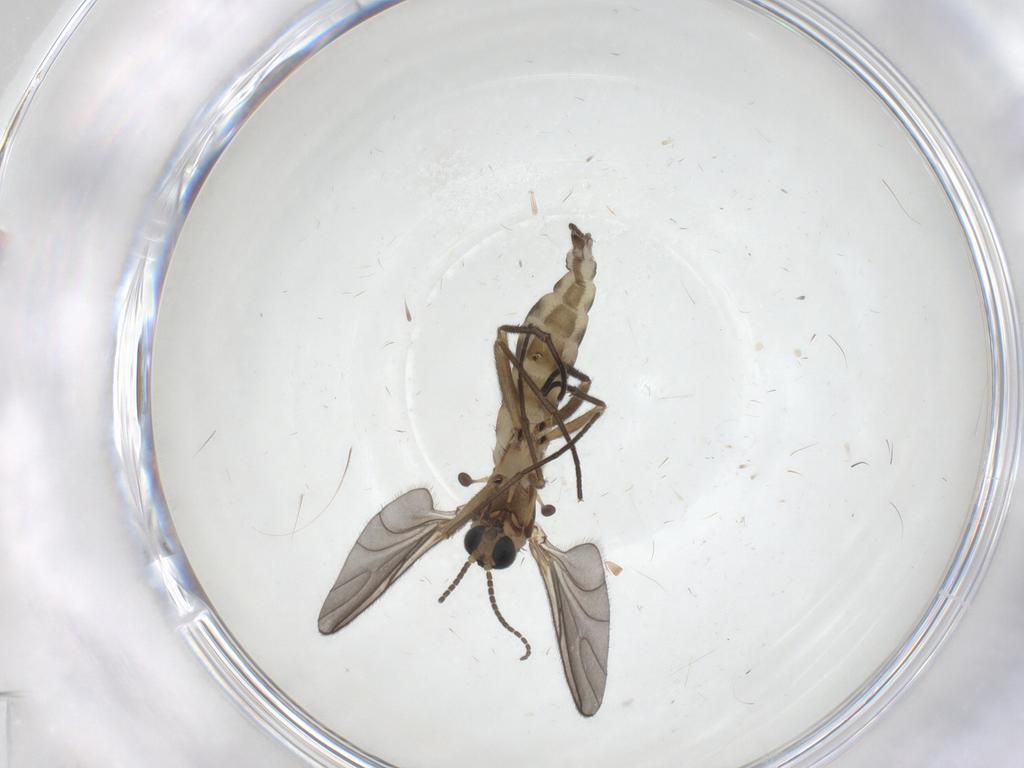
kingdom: Animalia
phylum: Arthropoda
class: Insecta
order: Diptera
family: Sciaridae
